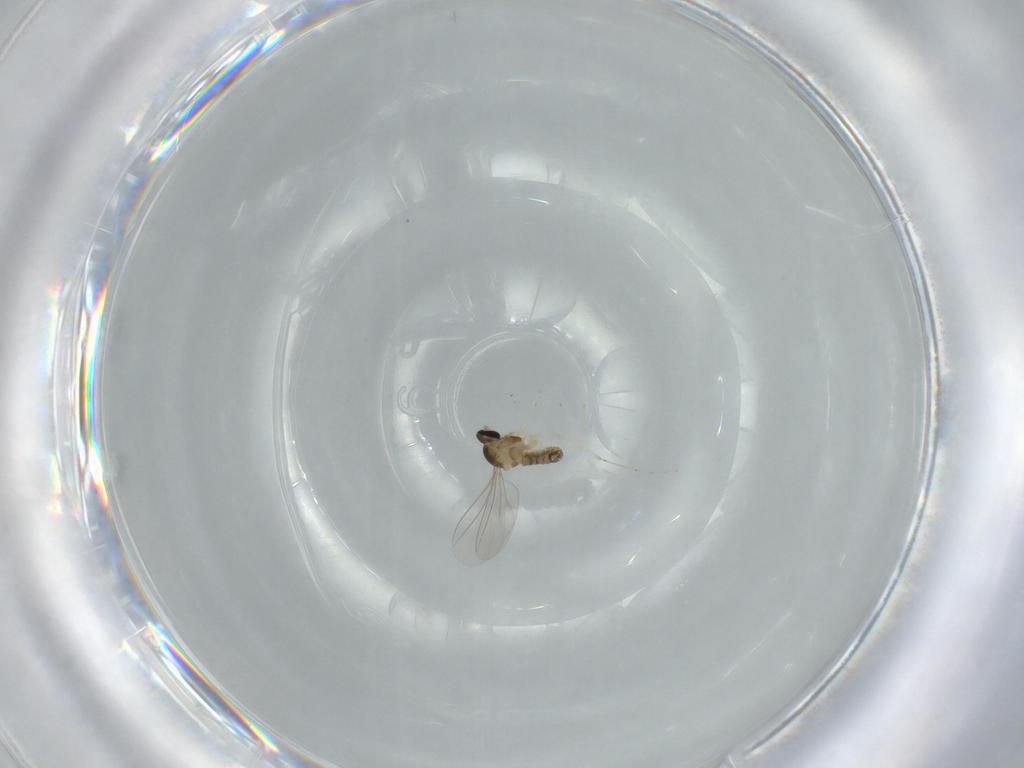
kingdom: Animalia
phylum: Arthropoda
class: Insecta
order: Diptera
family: Cecidomyiidae
